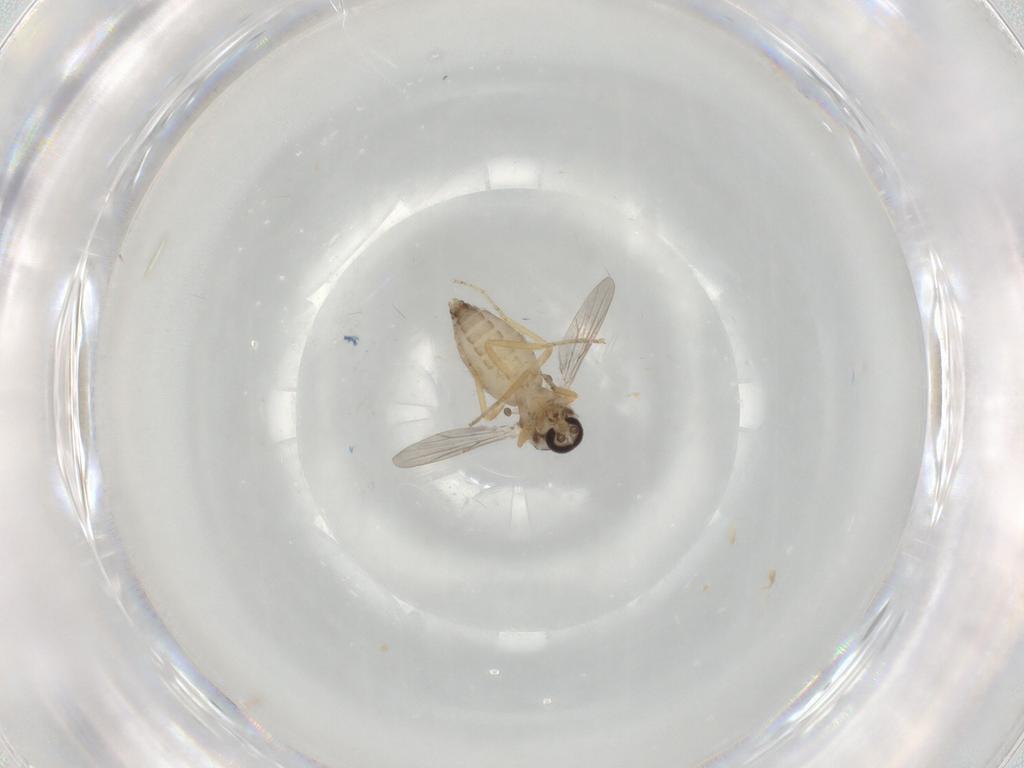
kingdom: Animalia
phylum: Arthropoda
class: Insecta
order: Diptera
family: Ceratopogonidae
